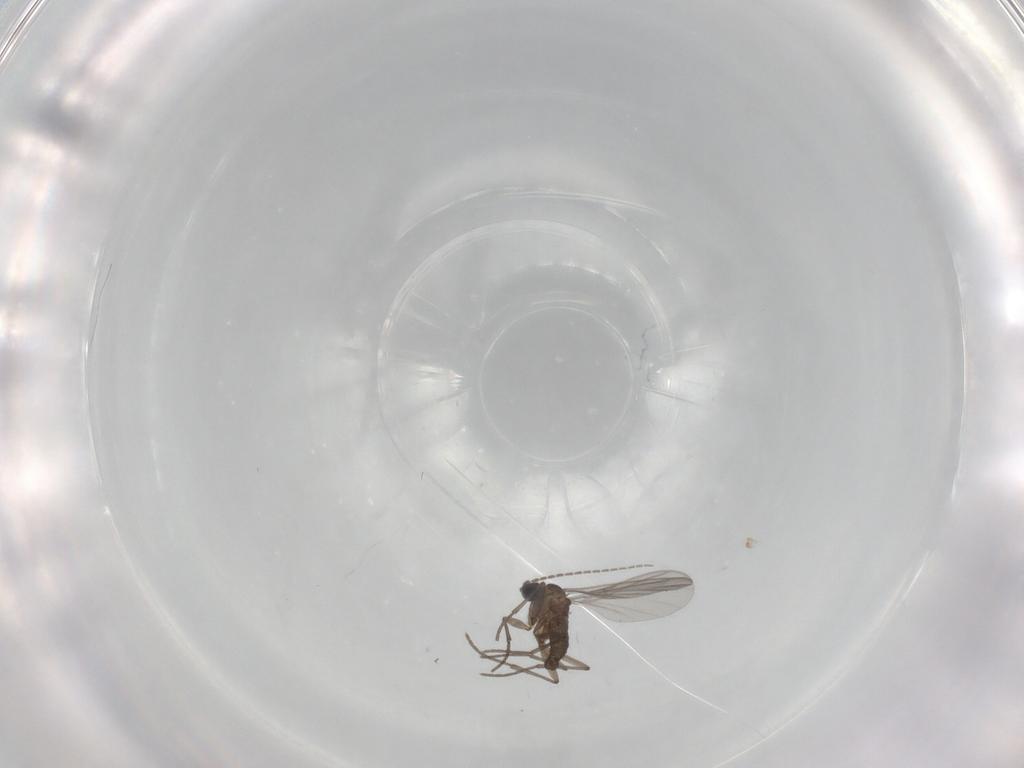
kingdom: Animalia
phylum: Arthropoda
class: Insecta
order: Diptera
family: Sciaridae
